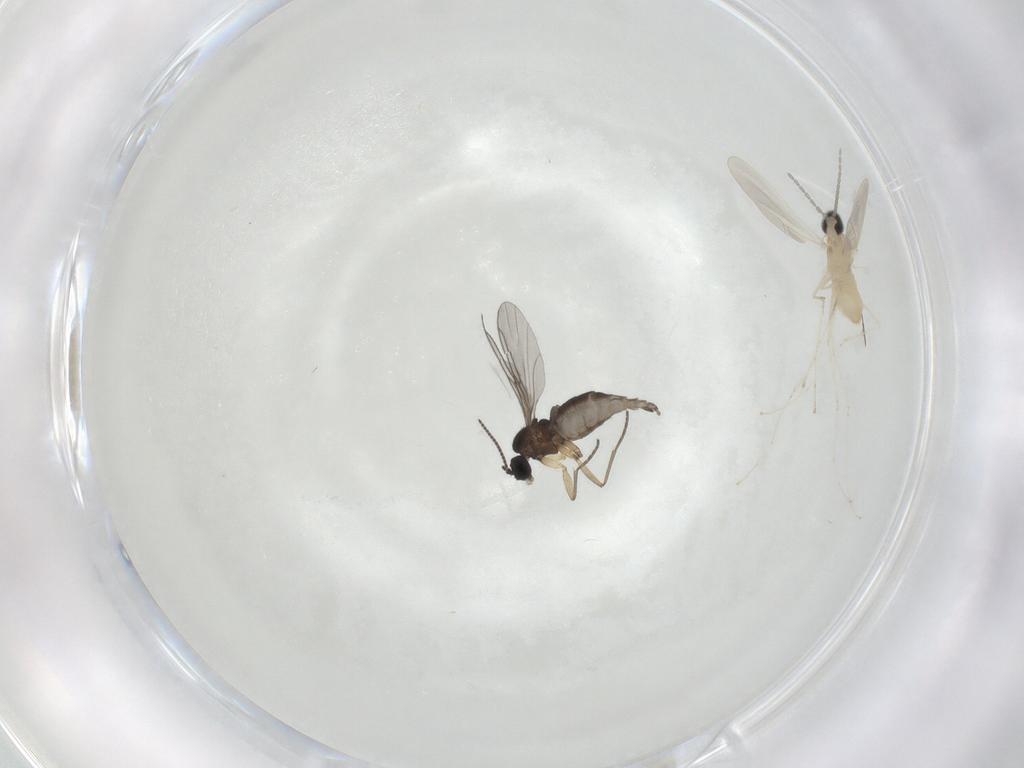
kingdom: Animalia
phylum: Arthropoda
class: Insecta
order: Diptera
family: Cecidomyiidae
